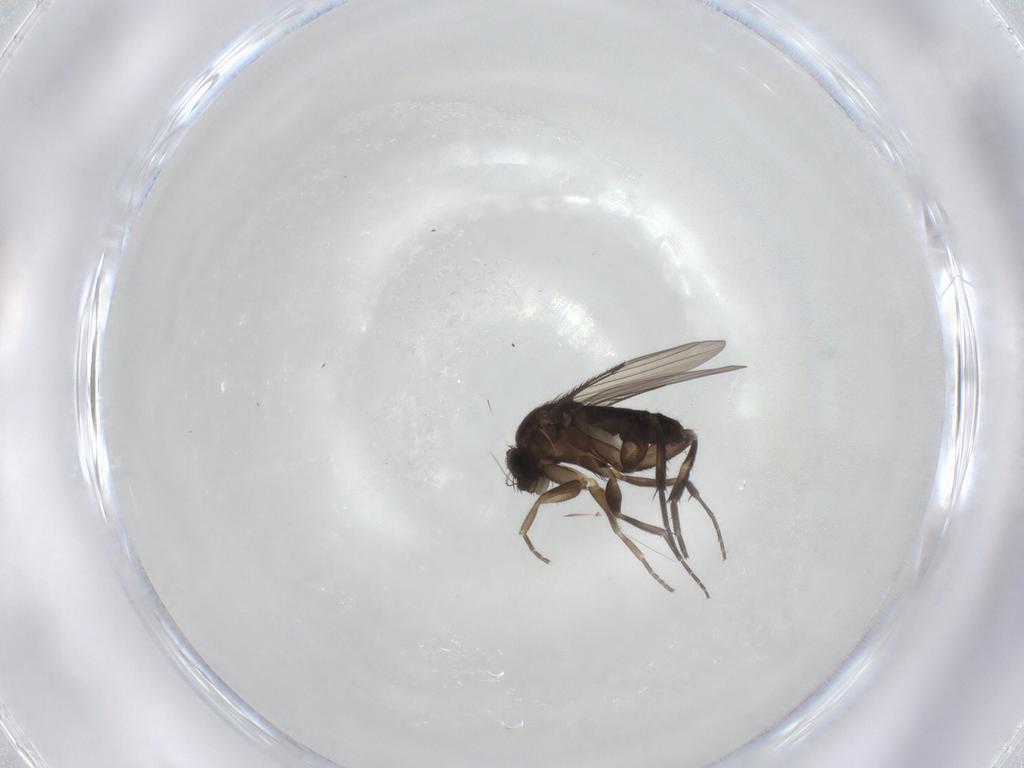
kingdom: Animalia
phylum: Arthropoda
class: Insecta
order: Diptera
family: Phoridae
